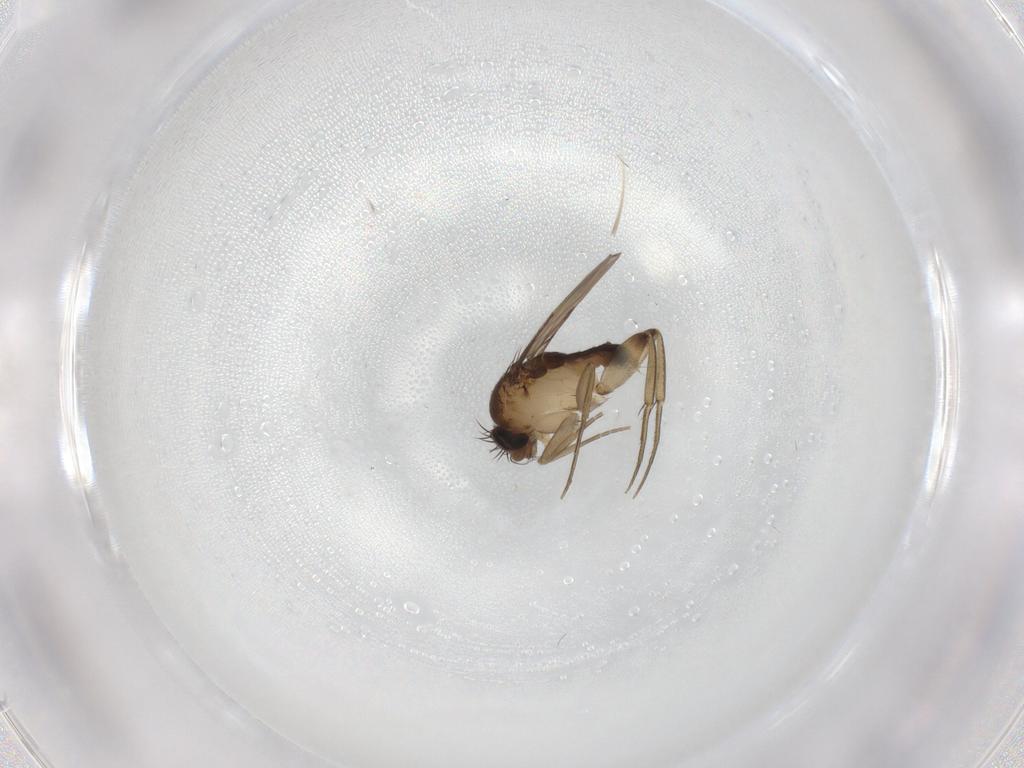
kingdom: Animalia
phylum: Arthropoda
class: Insecta
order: Diptera
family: Phoridae
